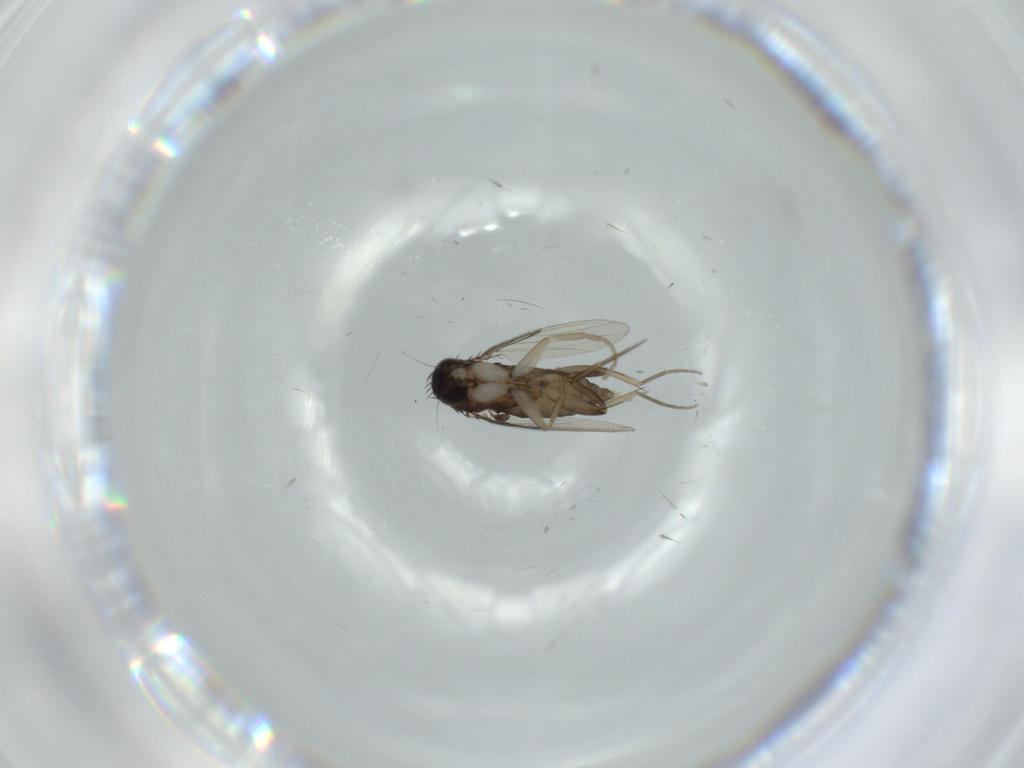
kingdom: Animalia
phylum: Arthropoda
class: Insecta
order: Diptera
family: Phoridae
